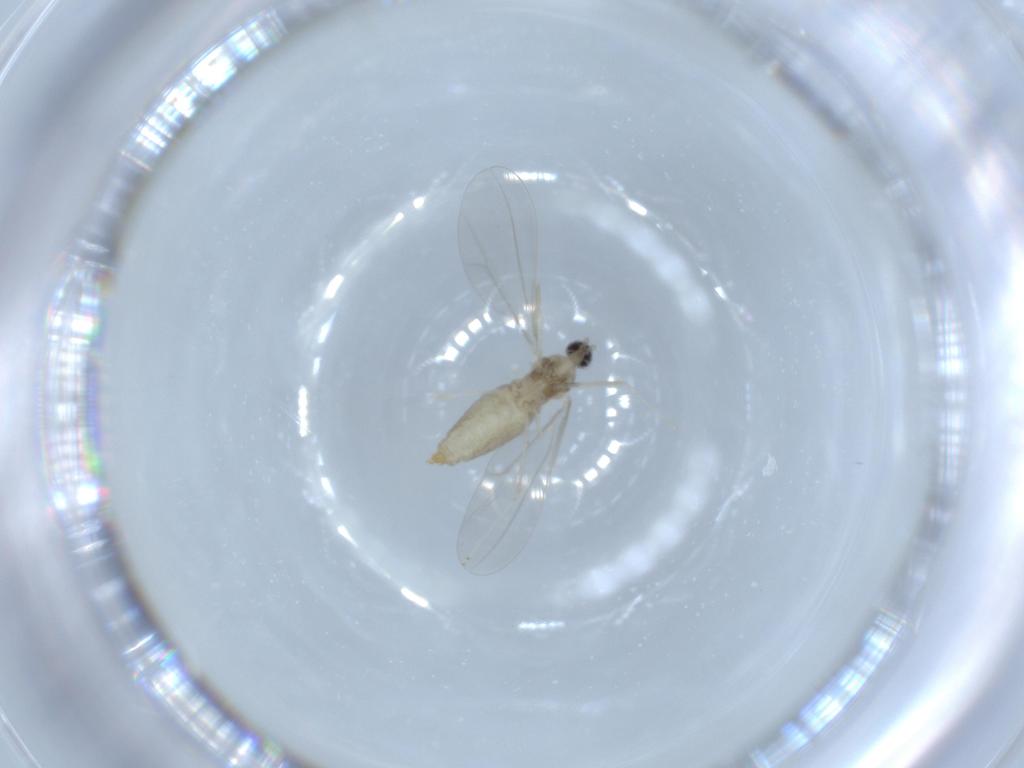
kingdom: Animalia
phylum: Arthropoda
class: Insecta
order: Diptera
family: Cecidomyiidae
